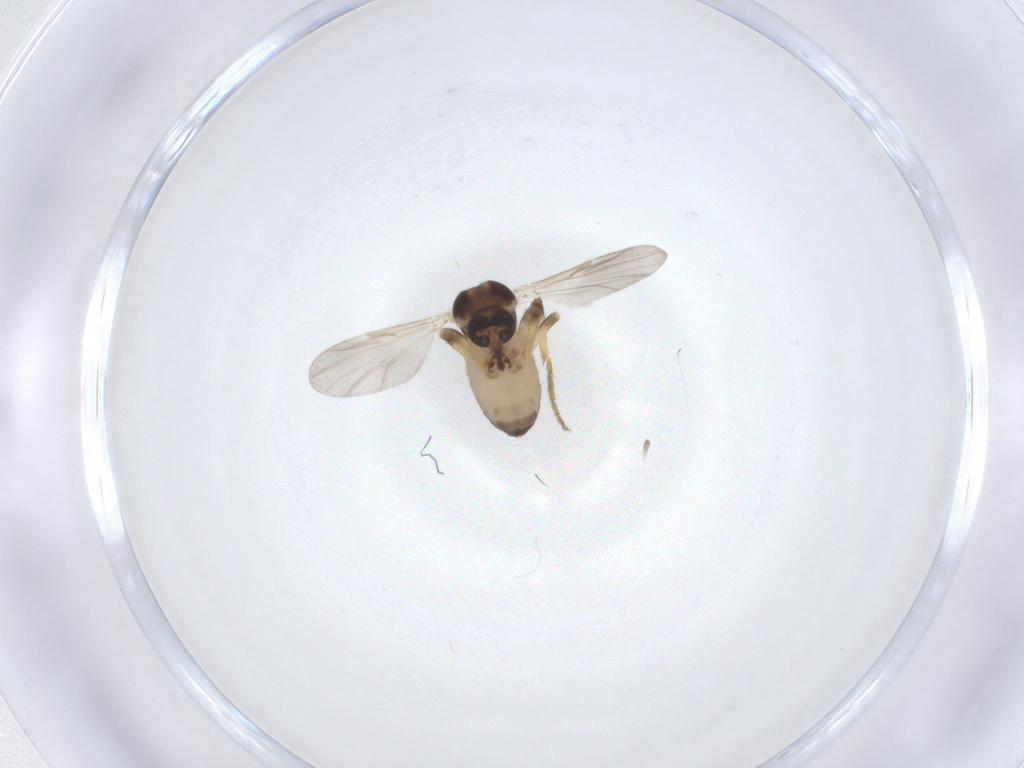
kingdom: Animalia
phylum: Arthropoda
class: Insecta
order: Diptera
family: Ceratopogonidae
